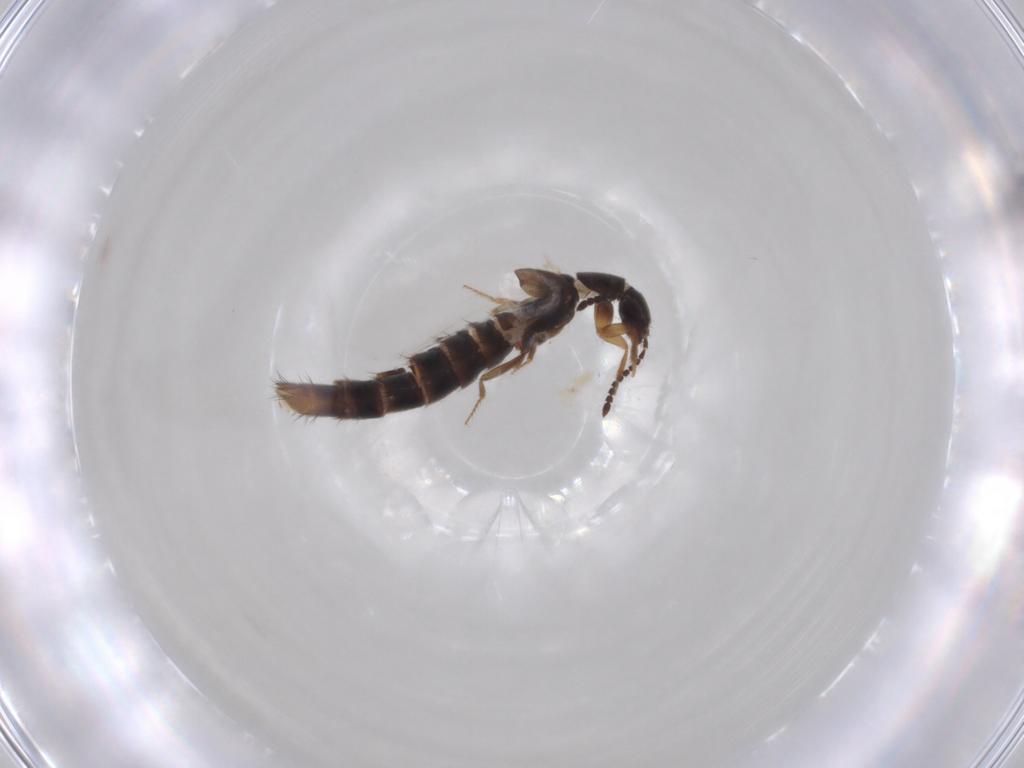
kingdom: Animalia
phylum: Arthropoda
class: Insecta
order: Coleoptera
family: Staphylinidae
